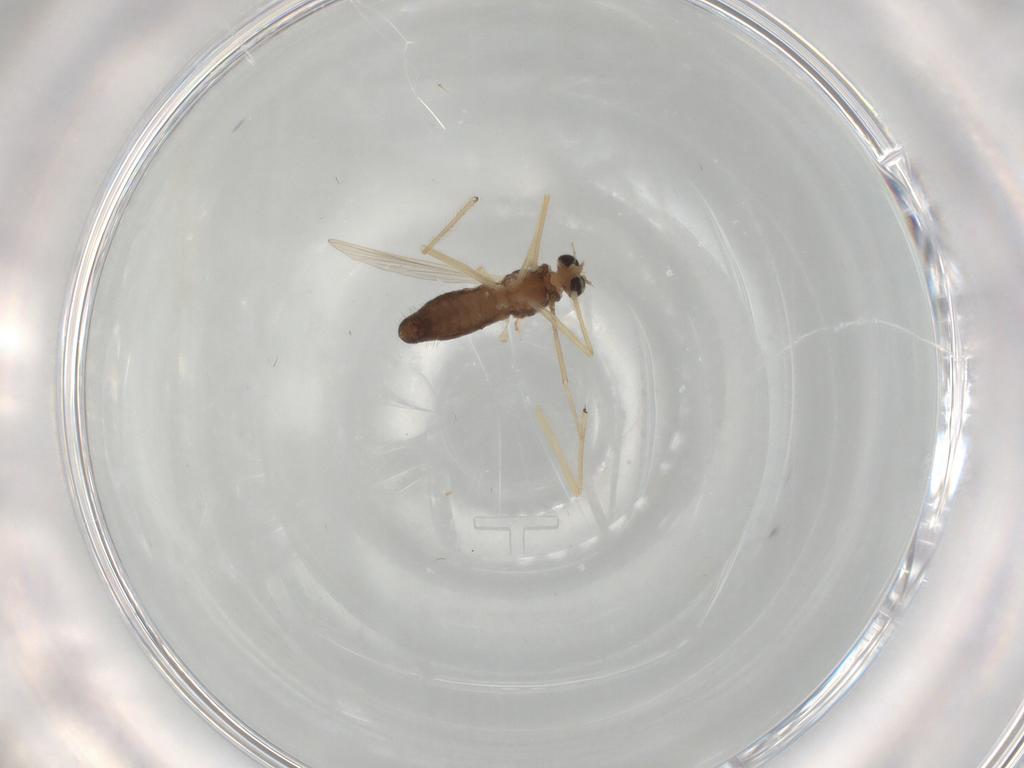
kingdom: Animalia
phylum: Arthropoda
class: Insecta
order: Diptera
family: Chironomidae
